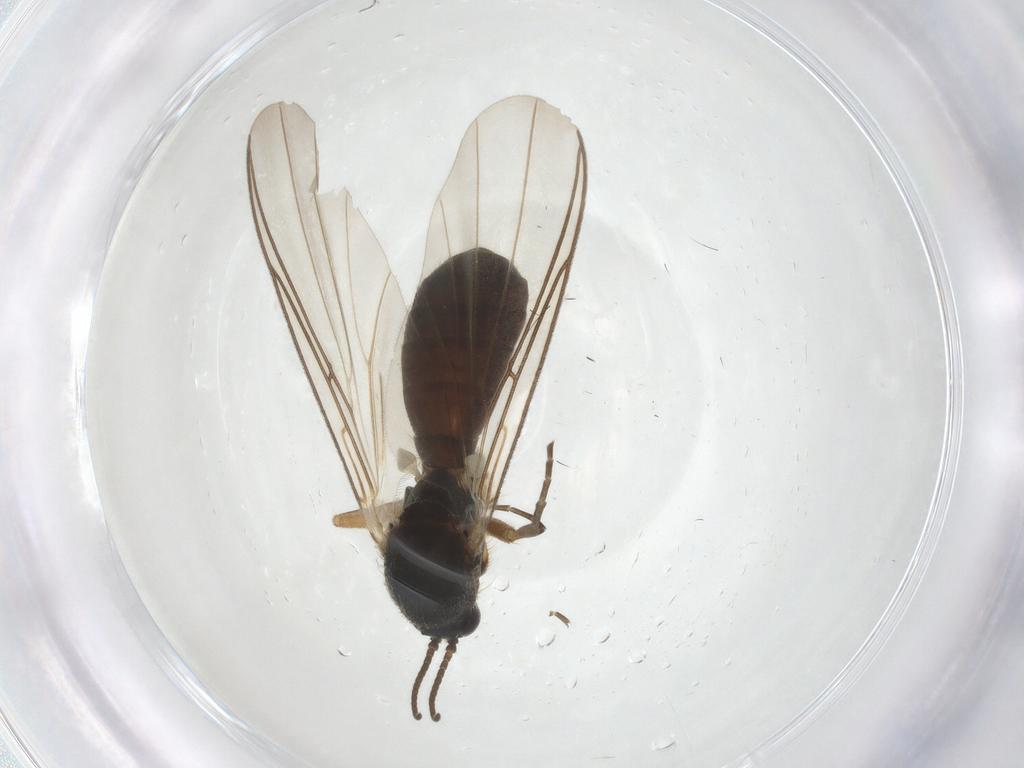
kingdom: Animalia
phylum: Arthropoda
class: Insecta
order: Diptera
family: Mycetophilidae
